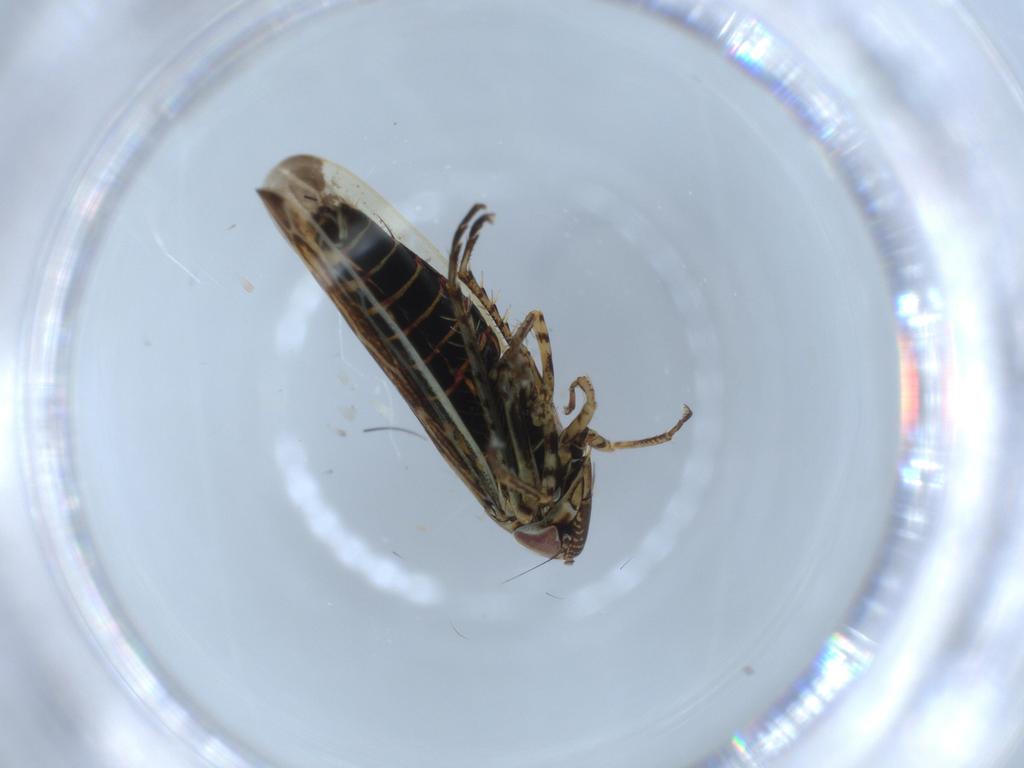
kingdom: Animalia
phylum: Arthropoda
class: Insecta
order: Hemiptera
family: Cicadellidae
